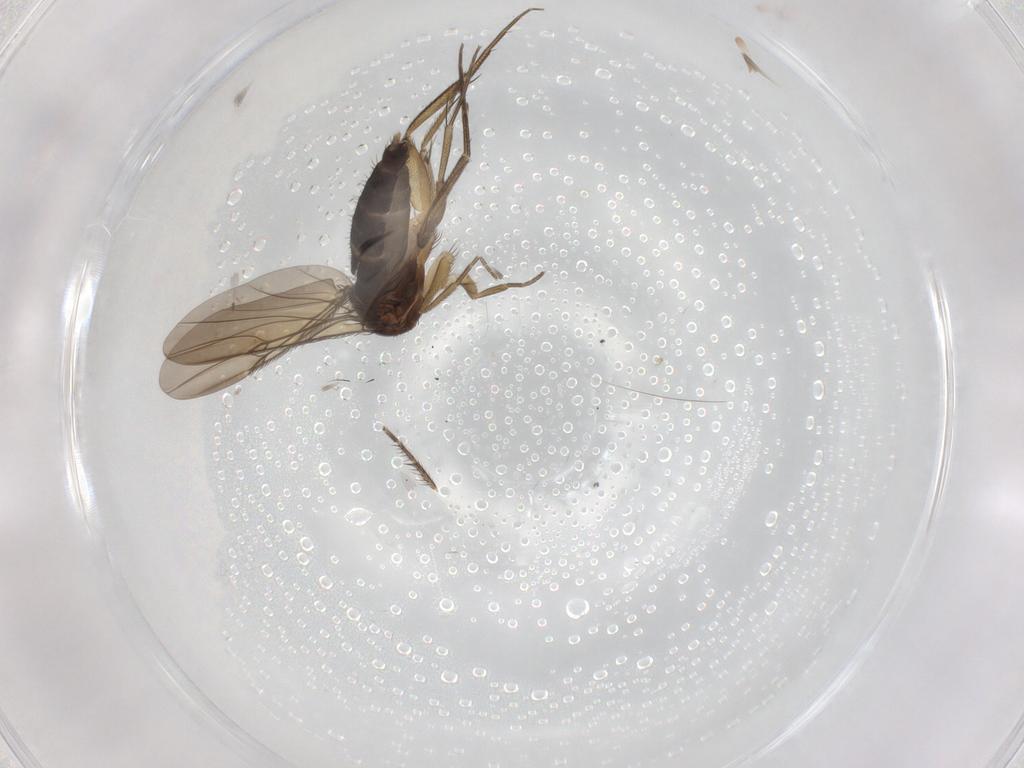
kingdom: Animalia
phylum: Arthropoda
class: Insecta
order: Diptera
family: Phoridae
